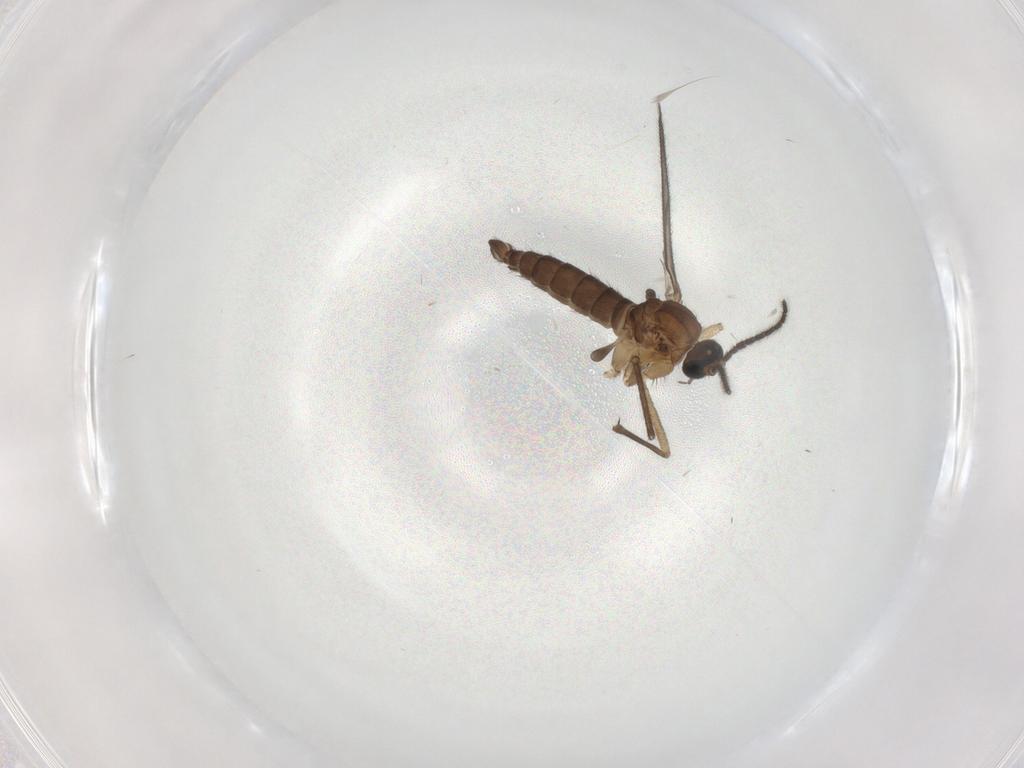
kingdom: Animalia
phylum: Arthropoda
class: Insecta
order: Diptera
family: Sciaridae
